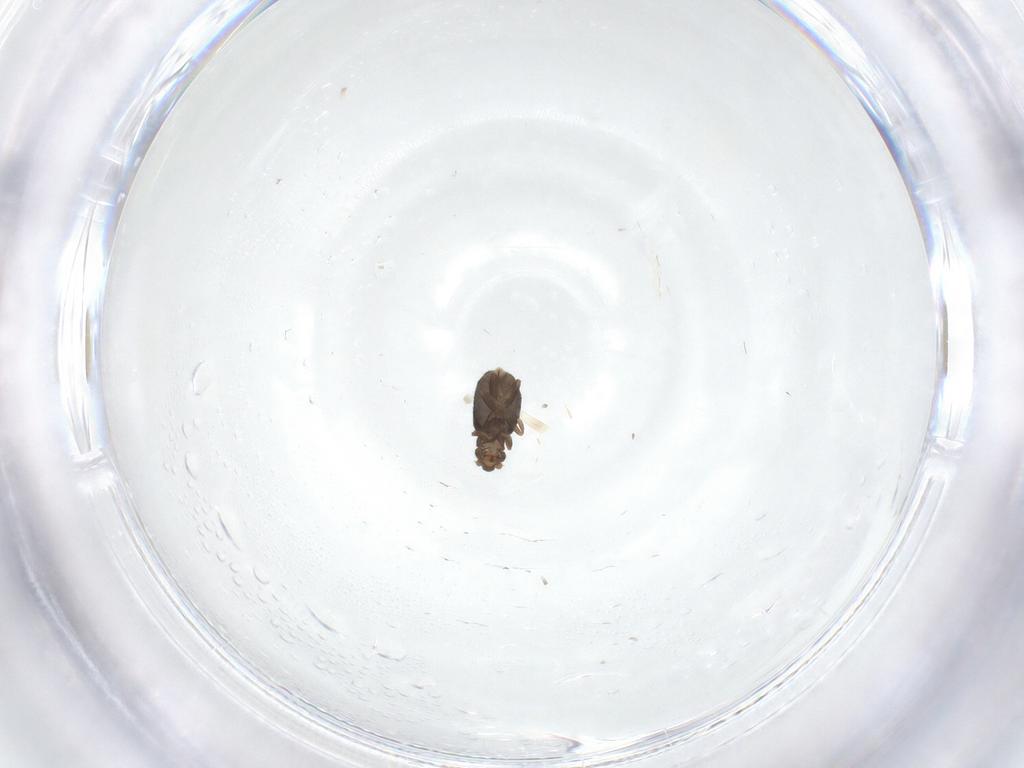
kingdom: Animalia
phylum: Arthropoda
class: Insecta
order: Diptera
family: Phoridae
